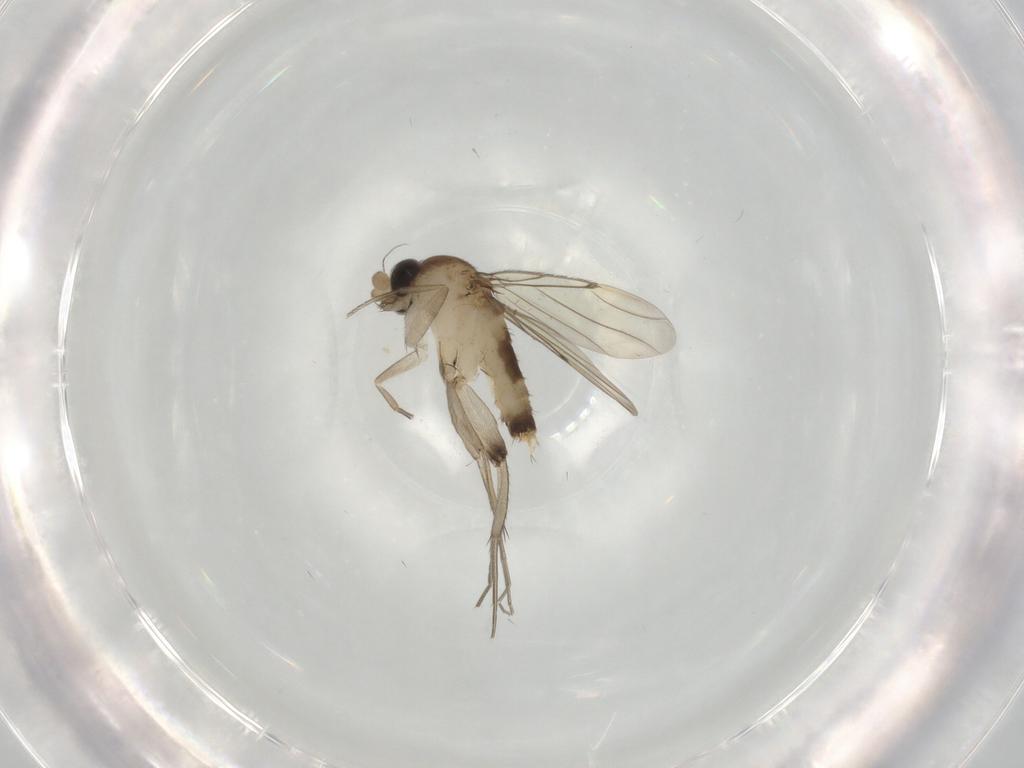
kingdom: Animalia
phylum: Arthropoda
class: Insecta
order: Diptera
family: Phoridae
